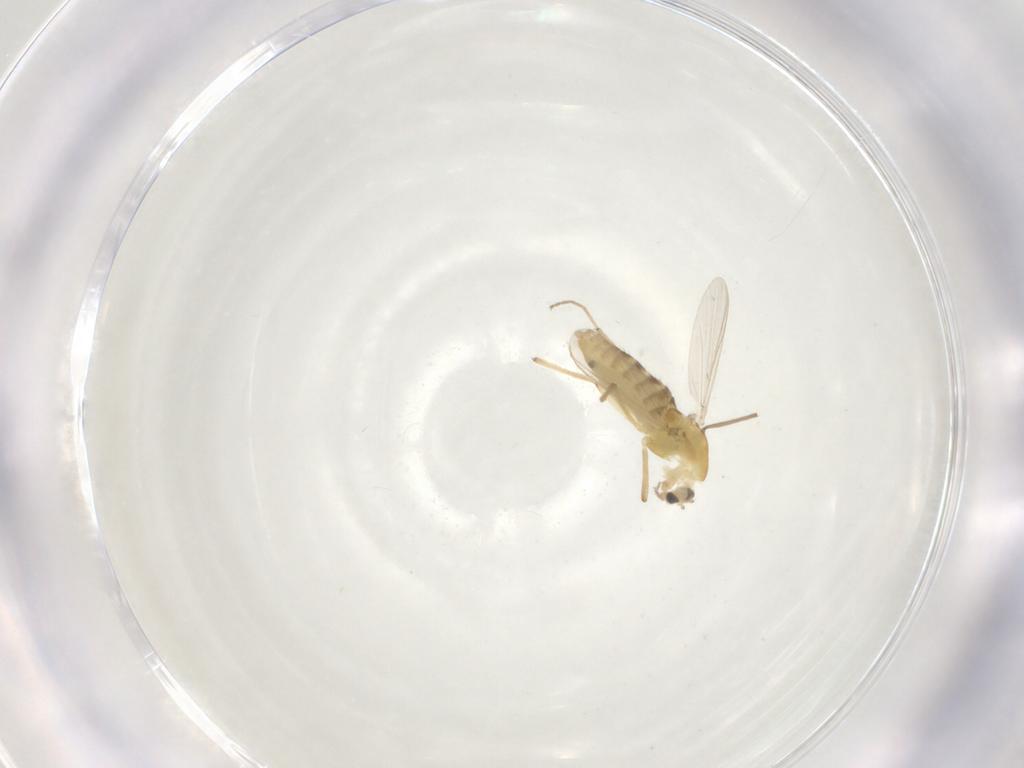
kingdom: Animalia
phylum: Arthropoda
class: Insecta
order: Diptera
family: Chironomidae
